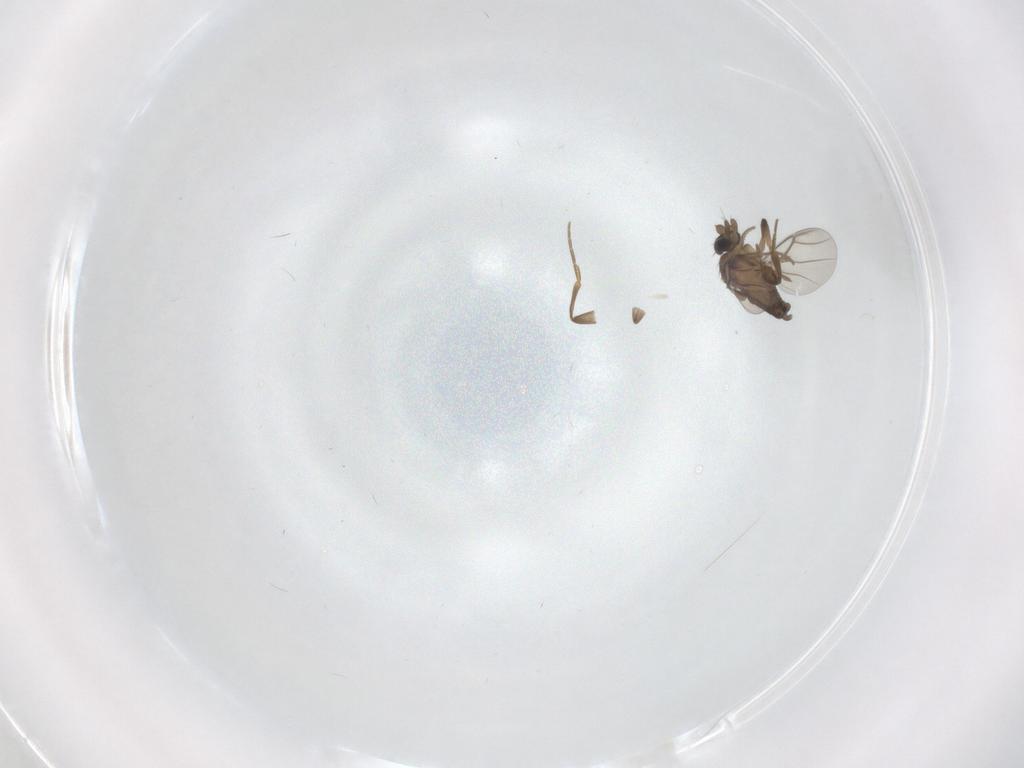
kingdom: Animalia
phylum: Arthropoda
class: Insecta
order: Diptera
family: Phoridae
